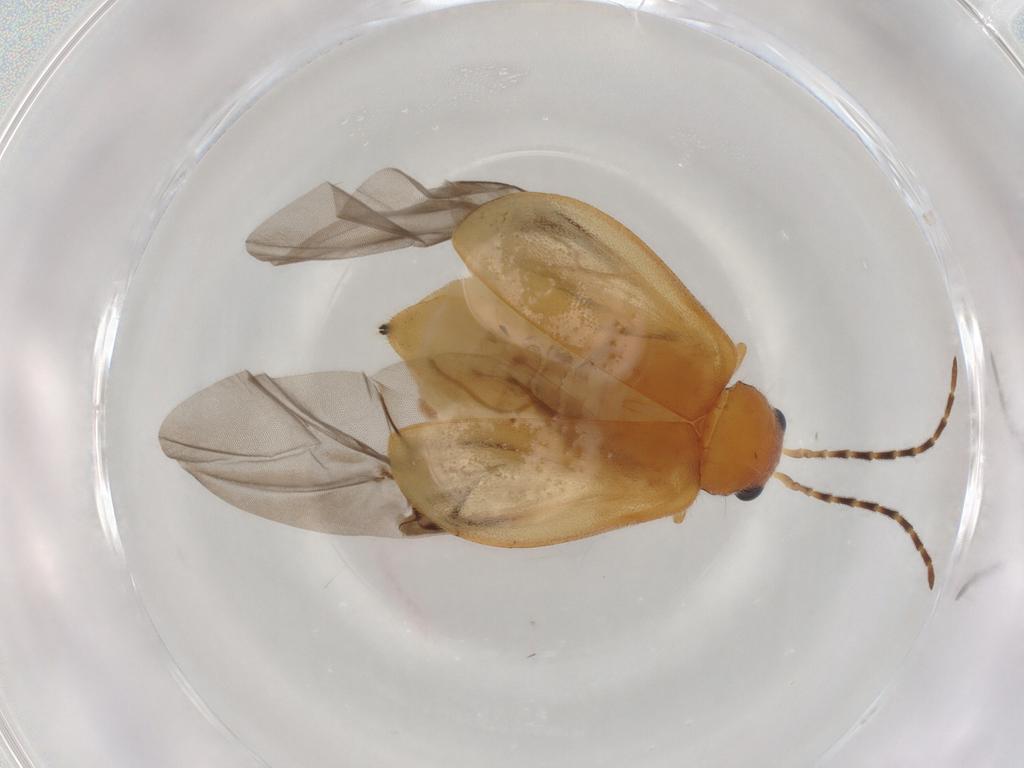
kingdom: Animalia
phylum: Arthropoda
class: Insecta
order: Coleoptera
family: Chrysomelidae
